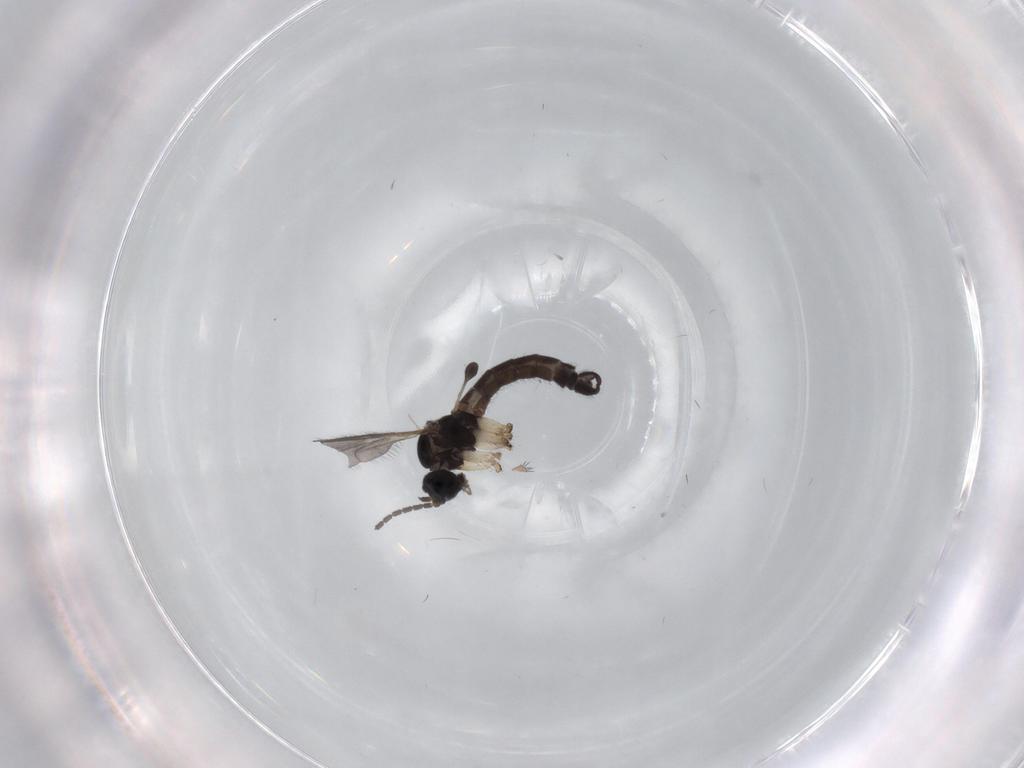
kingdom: Animalia
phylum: Arthropoda
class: Insecta
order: Diptera
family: Sciaridae
